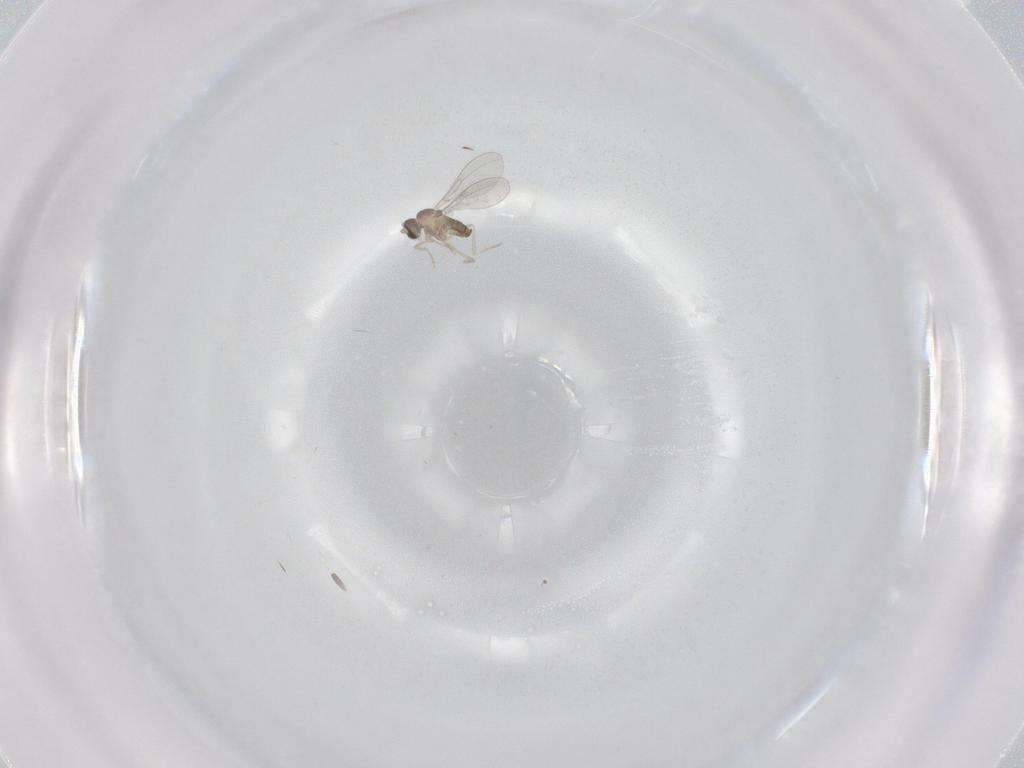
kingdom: Animalia
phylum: Arthropoda
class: Insecta
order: Diptera
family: Cecidomyiidae
